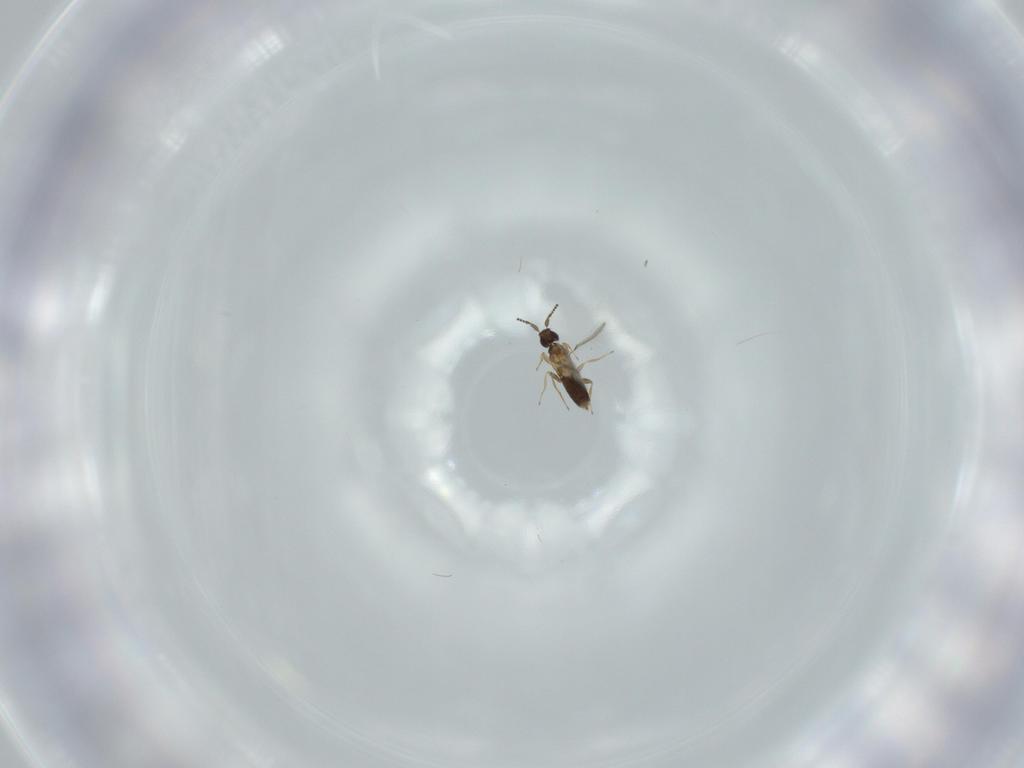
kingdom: Animalia
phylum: Arthropoda
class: Insecta
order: Hymenoptera
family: Mymaridae
